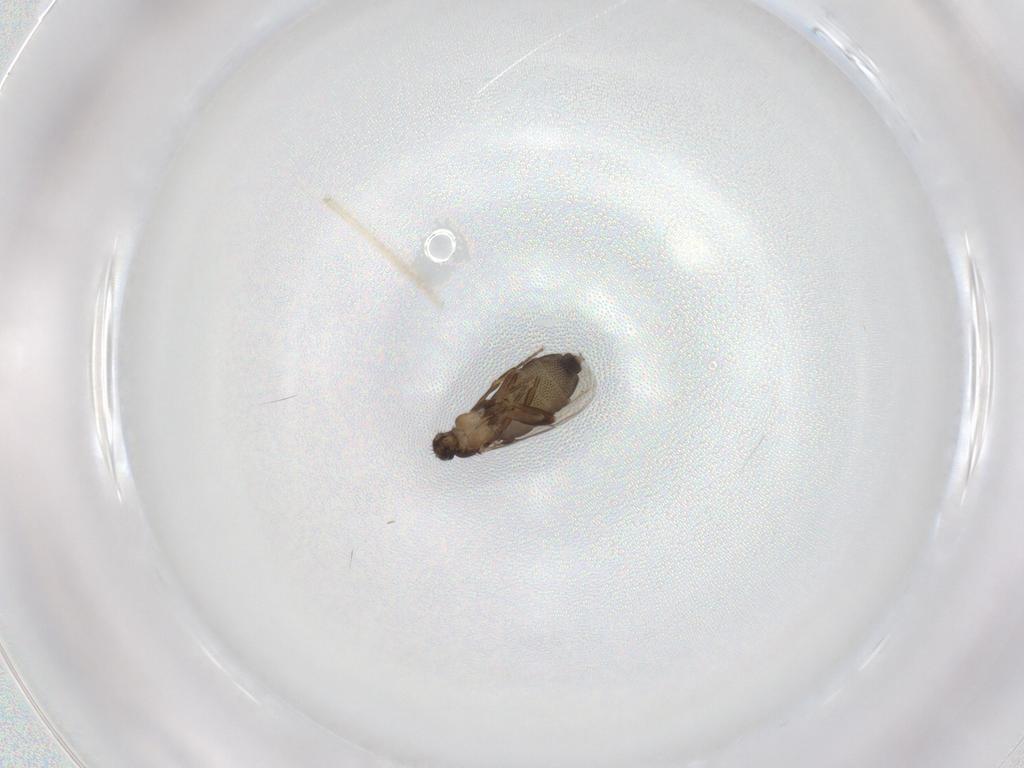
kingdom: Animalia
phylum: Arthropoda
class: Insecta
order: Diptera
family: Phoridae
